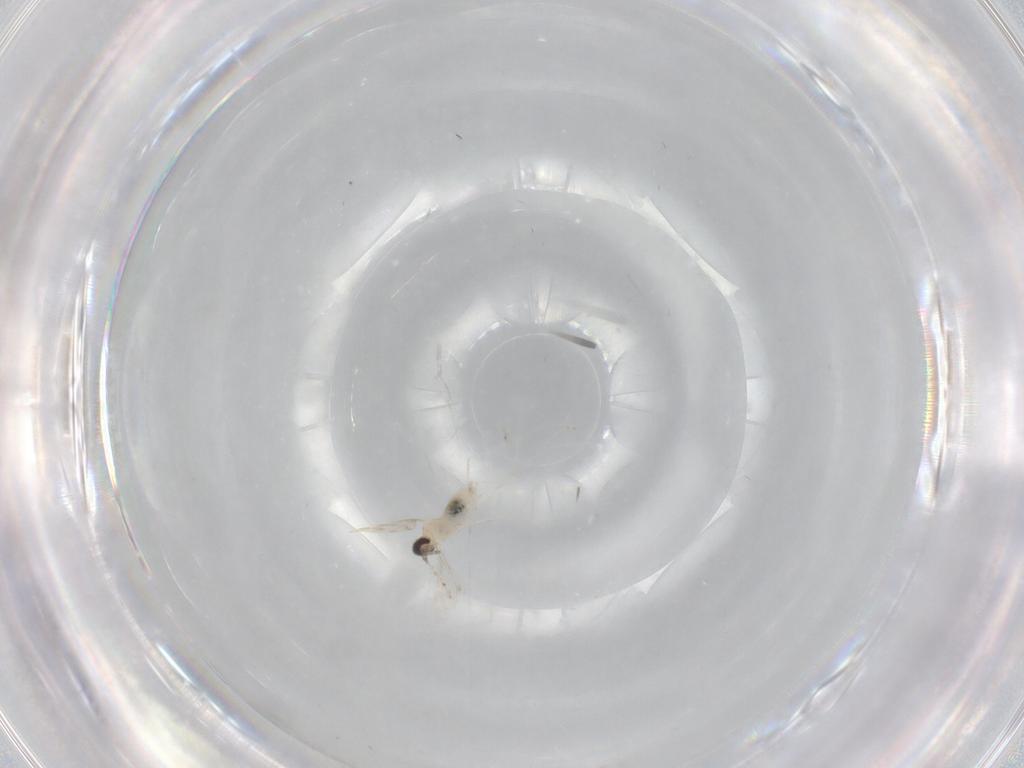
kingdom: Animalia
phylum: Arthropoda
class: Insecta
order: Diptera
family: Cecidomyiidae
